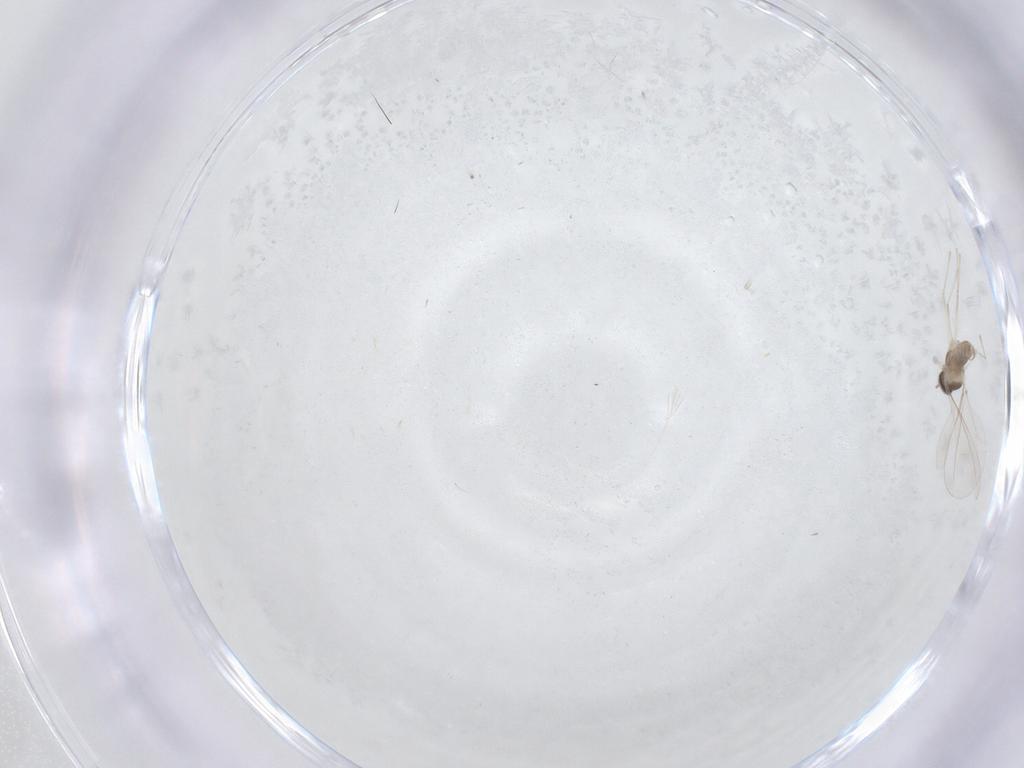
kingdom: Animalia
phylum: Arthropoda
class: Insecta
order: Diptera
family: Cecidomyiidae
